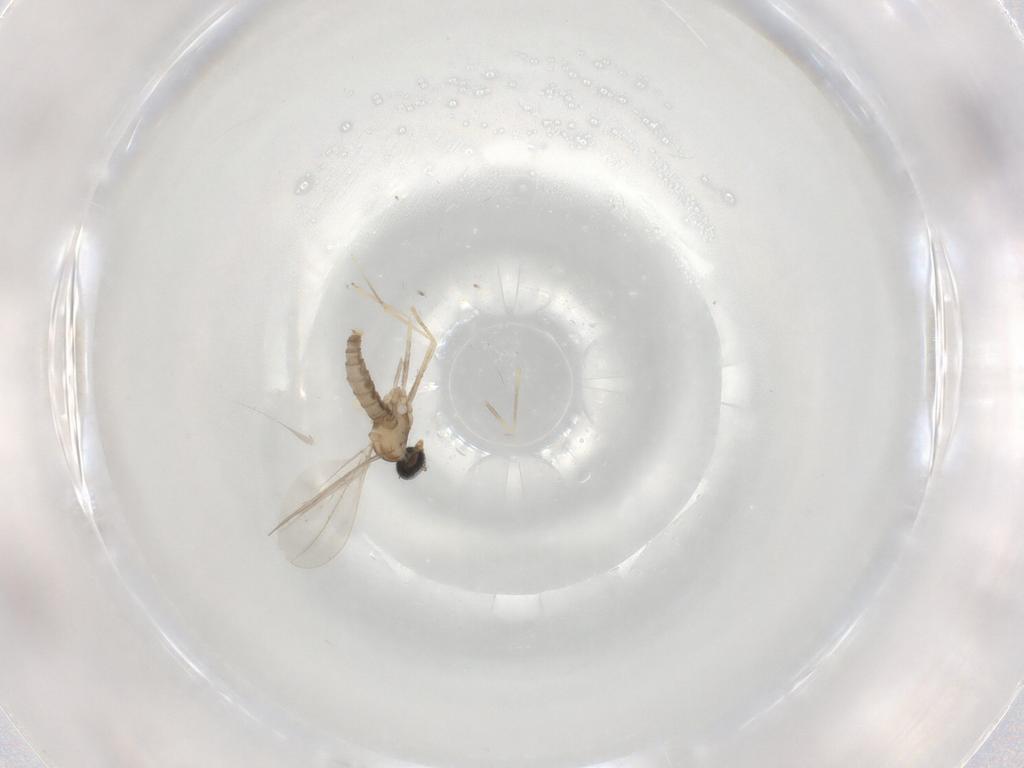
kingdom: Animalia
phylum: Arthropoda
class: Insecta
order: Diptera
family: Cecidomyiidae
